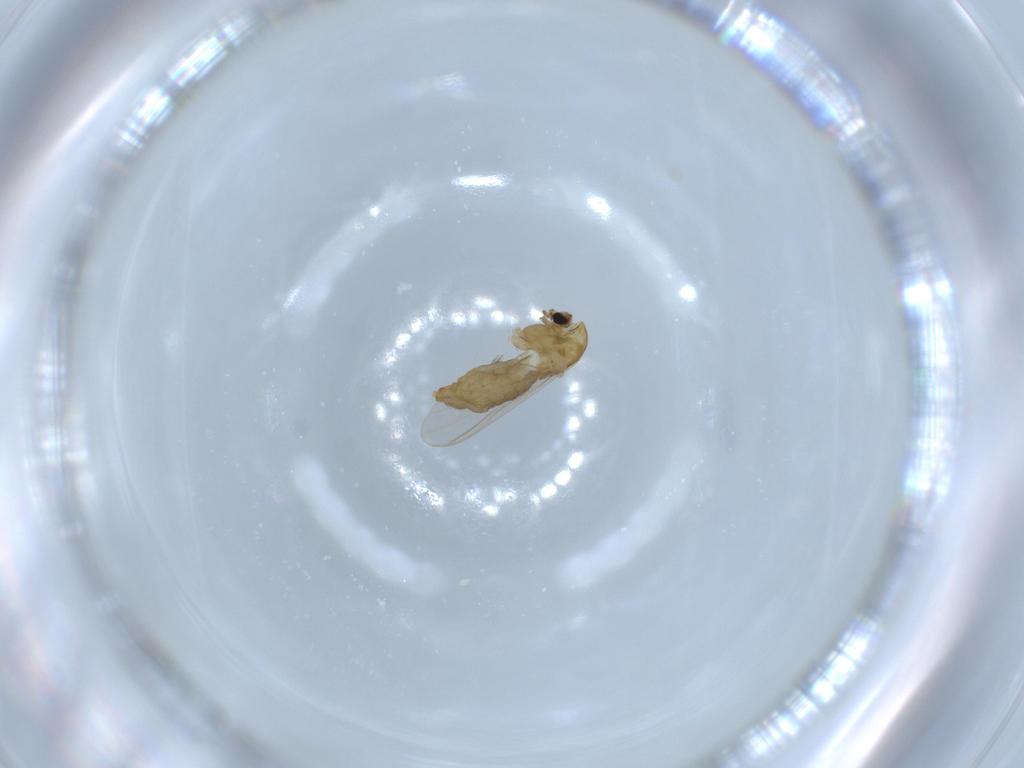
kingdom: Animalia
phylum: Arthropoda
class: Insecta
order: Diptera
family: Chironomidae
